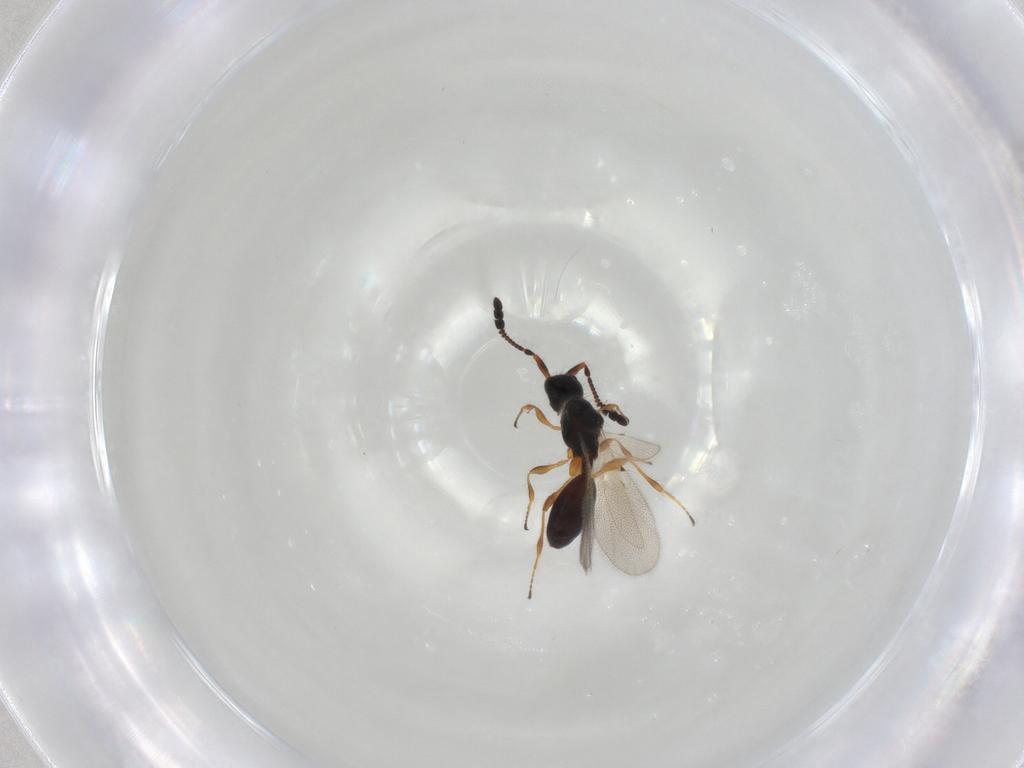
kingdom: Animalia
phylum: Arthropoda
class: Insecta
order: Hymenoptera
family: Diapriidae
